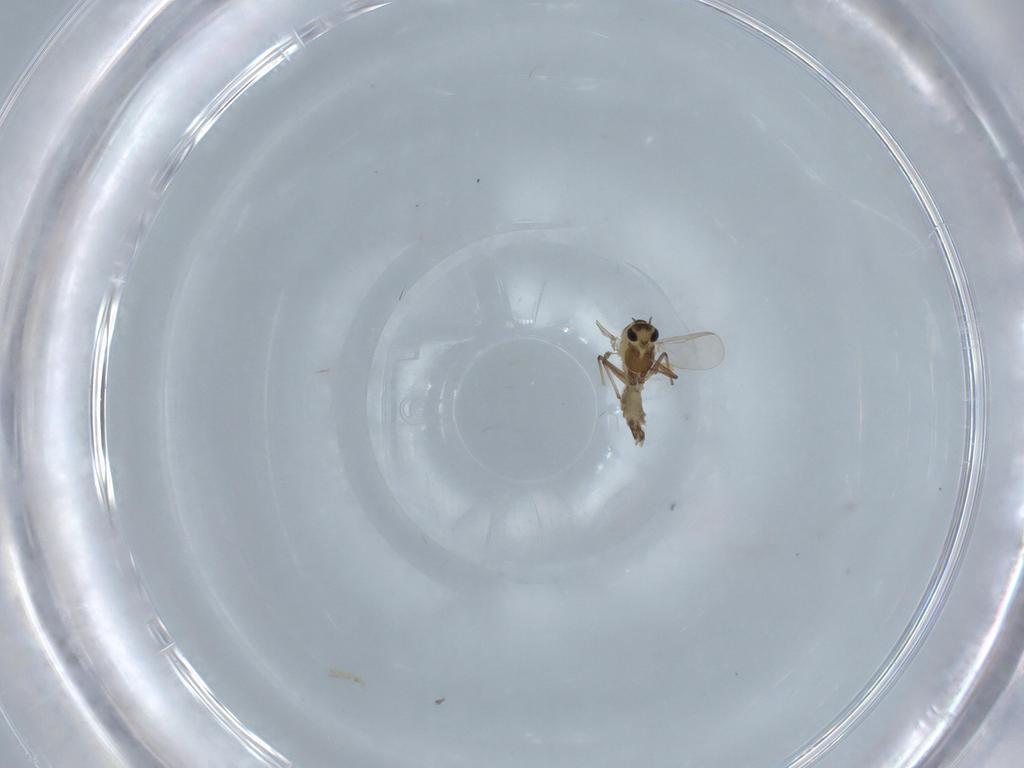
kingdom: Animalia
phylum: Arthropoda
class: Insecta
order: Diptera
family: Chironomidae
